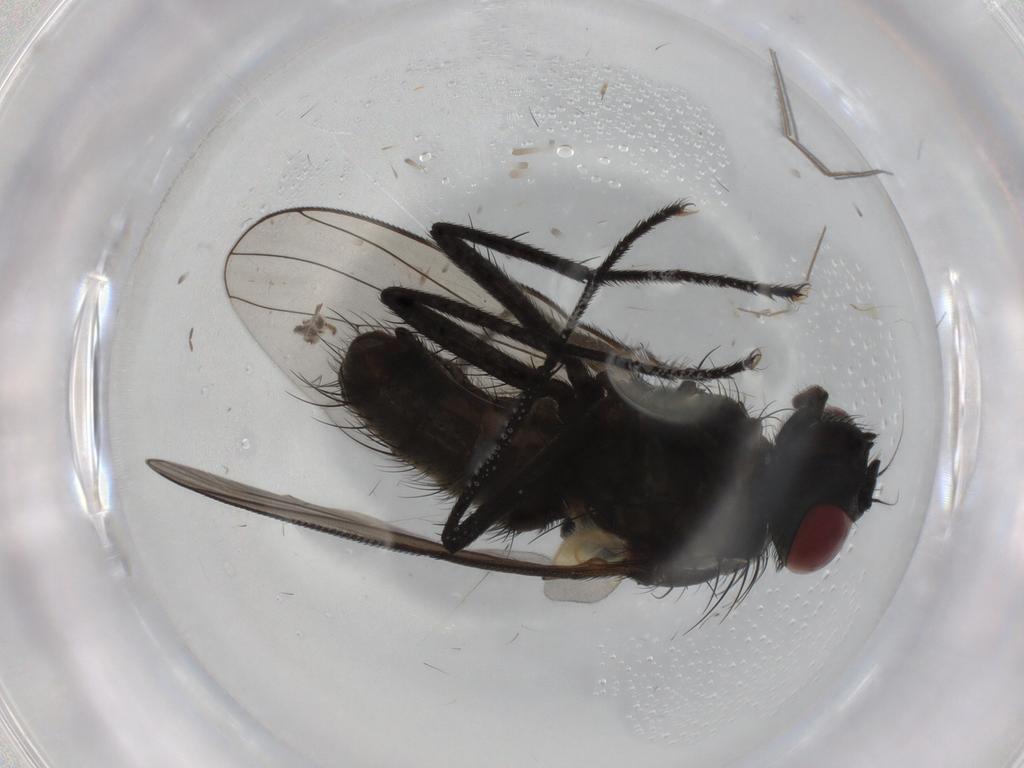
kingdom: Animalia
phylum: Arthropoda
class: Insecta
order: Diptera
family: Muscidae
